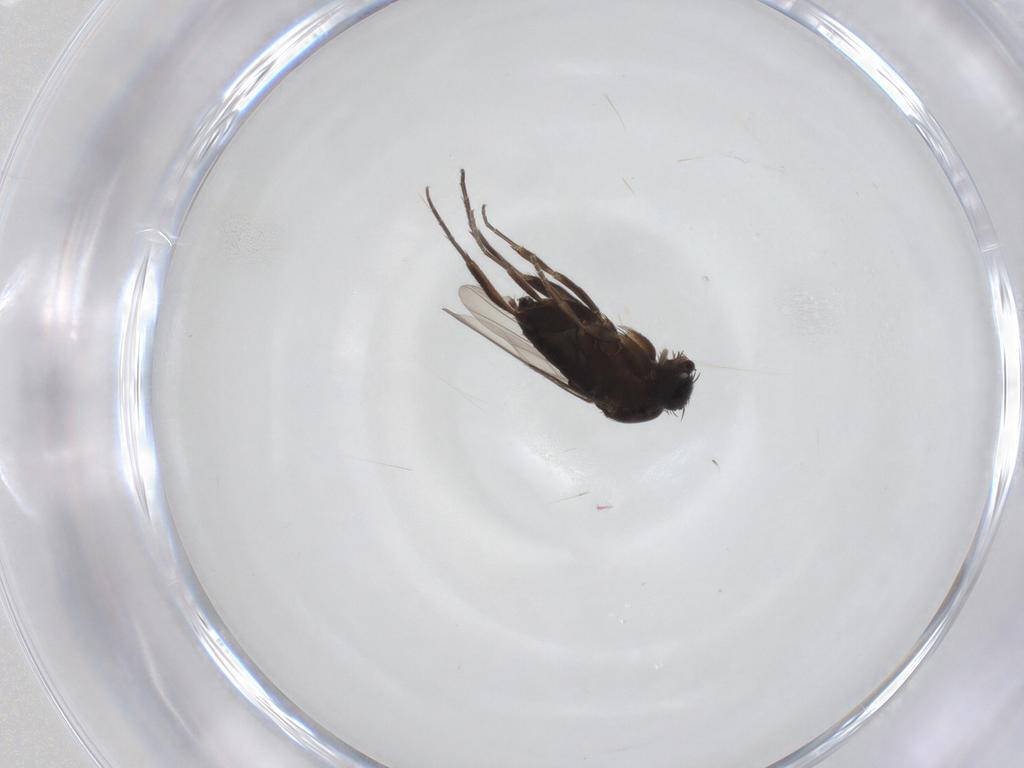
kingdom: Animalia
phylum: Arthropoda
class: Insecta
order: Diptera
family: Phoridae
